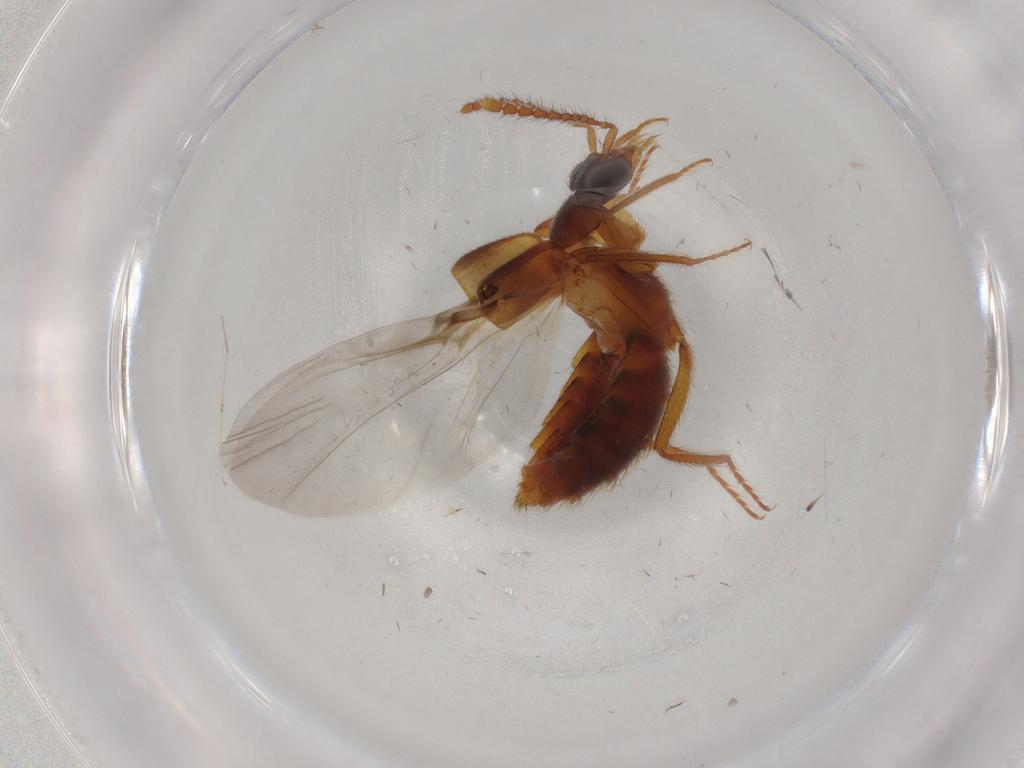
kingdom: Animalia
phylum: Arthropoda
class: Insecta
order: Coleoptera
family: Staphylinidae
